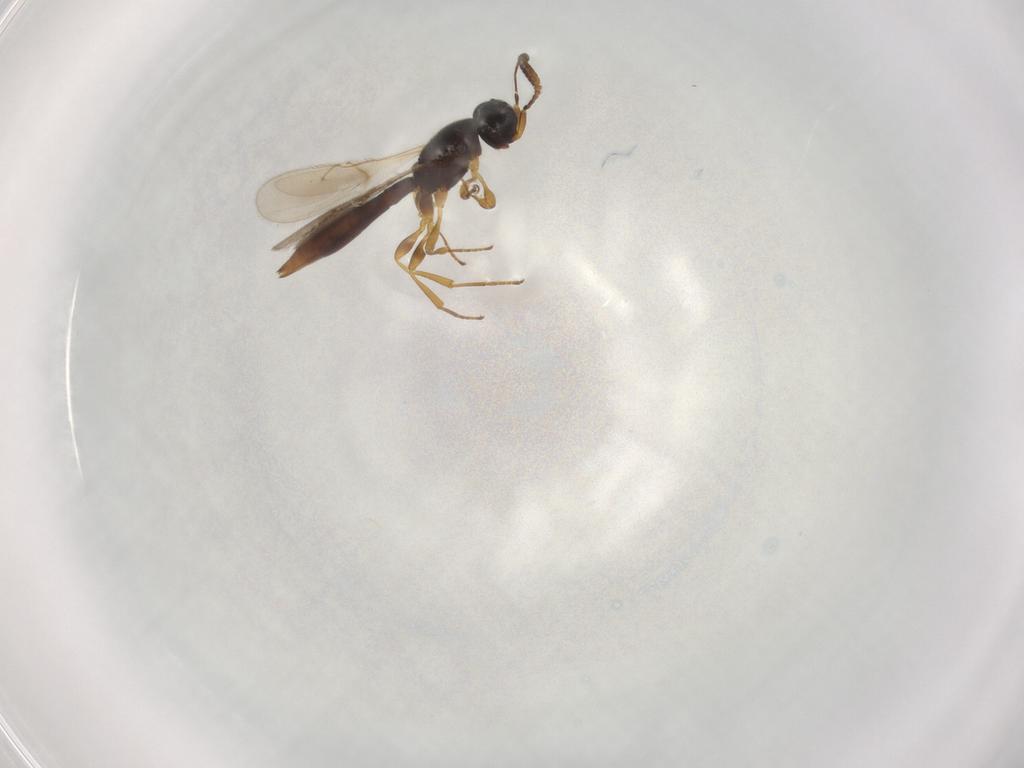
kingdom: Animalia
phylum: Arthropoda
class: Insecta
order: Hymenoptera
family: Scelionidae
